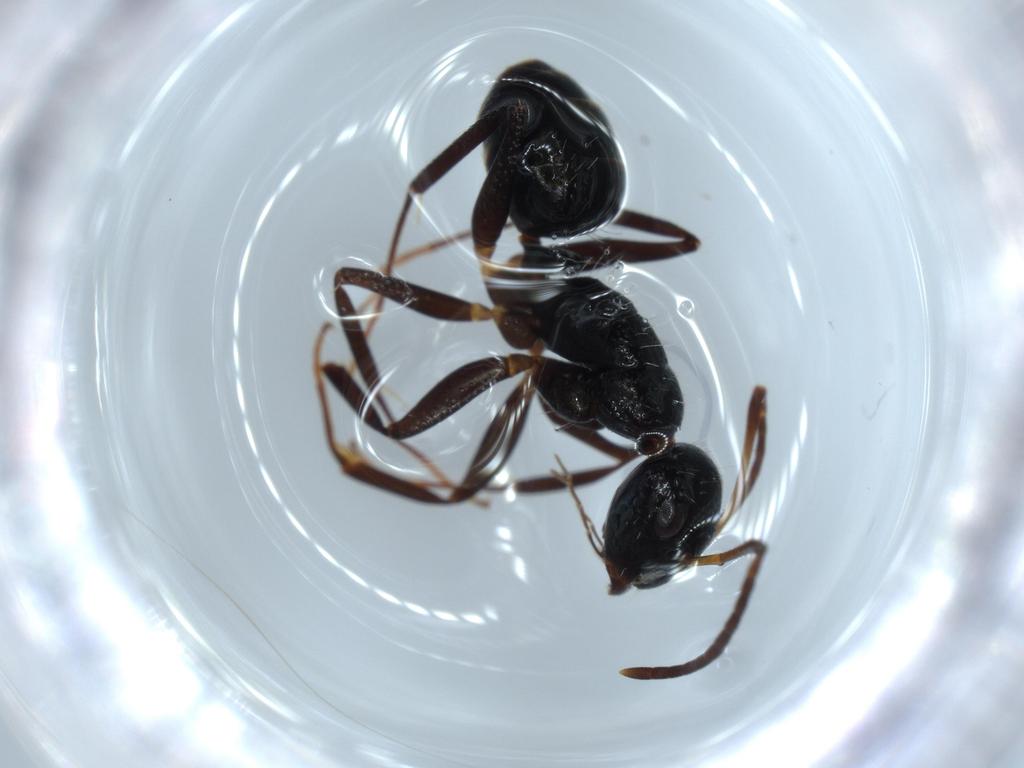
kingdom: Animalia
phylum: Arthropoda
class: Insecta
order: Hymenoptera
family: Formicidae
